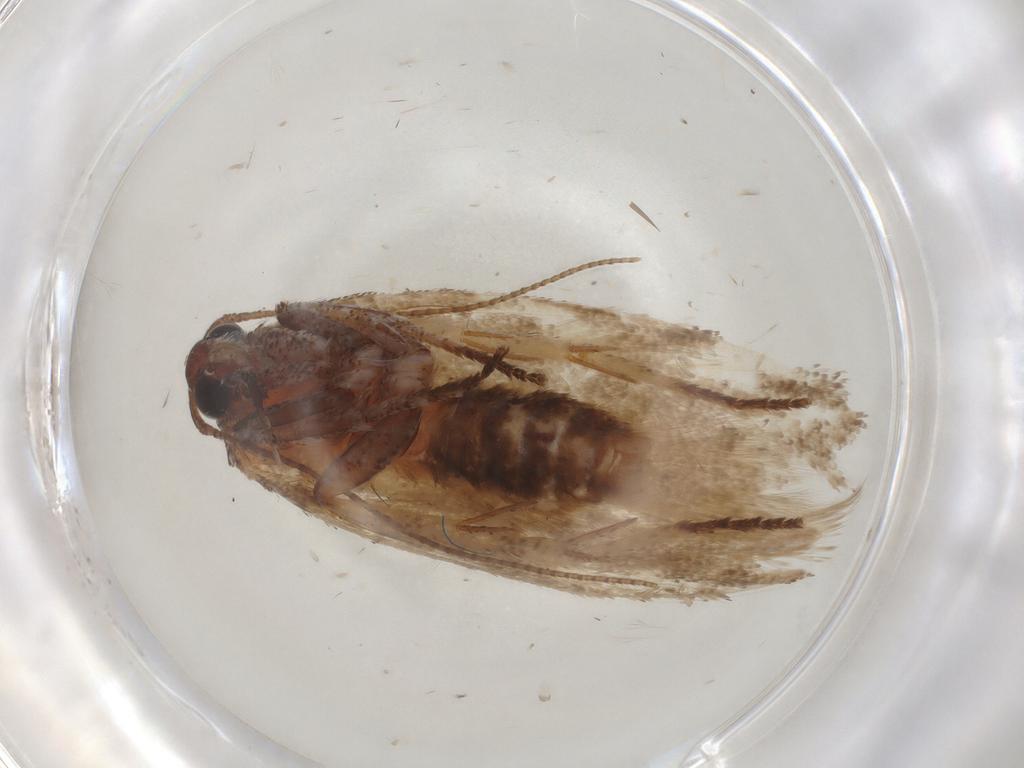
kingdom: Animalia
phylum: Arthropoda
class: Insecta
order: Lepidoptera
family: Cosmopterigidae
